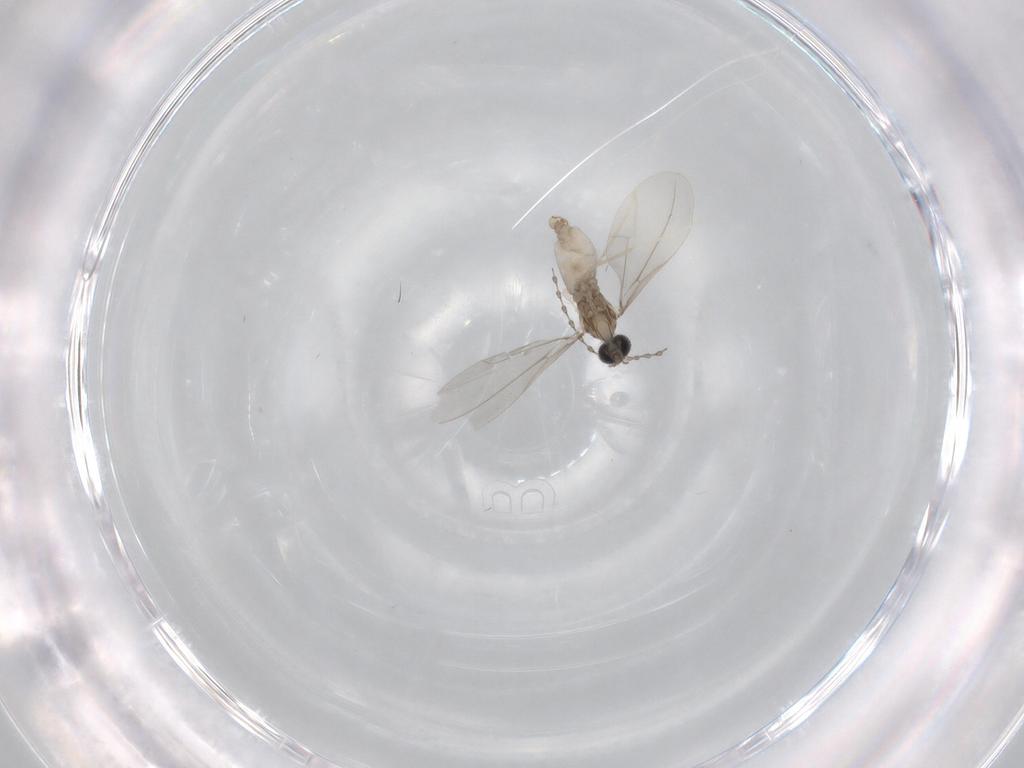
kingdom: Animalia
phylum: Arthropoda
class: Insecta
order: Diptera
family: Cecidomyiidae
